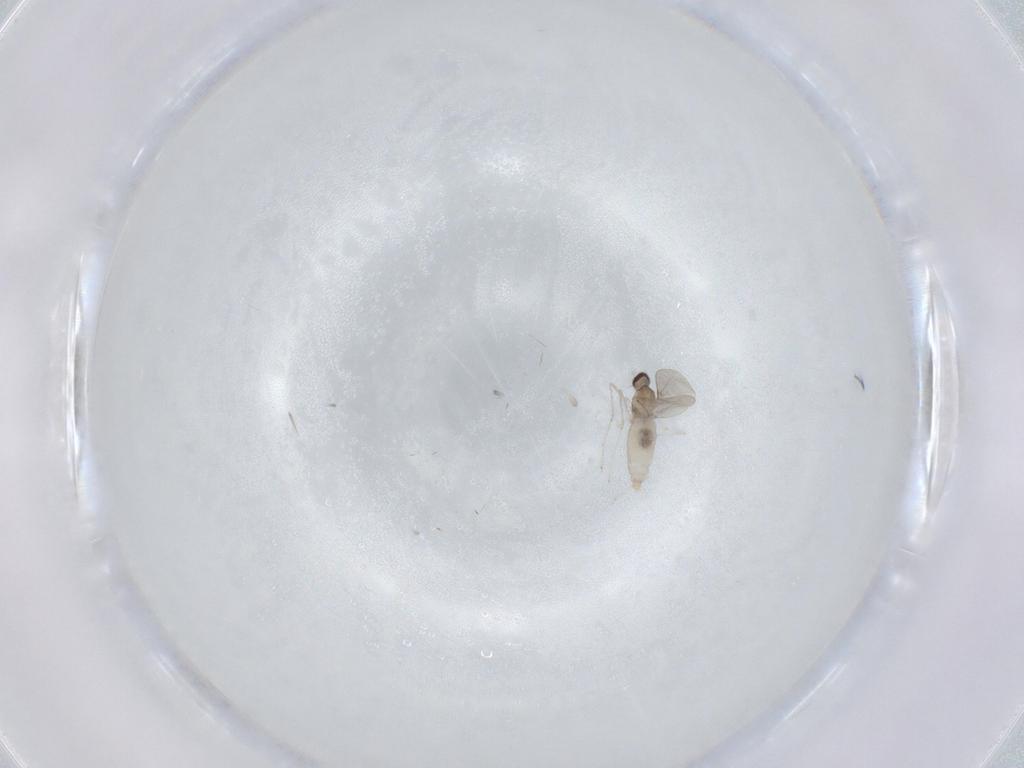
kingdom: Animalia
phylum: Arthropoda
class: Insecta
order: Diptera
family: Cecidomyiidae
